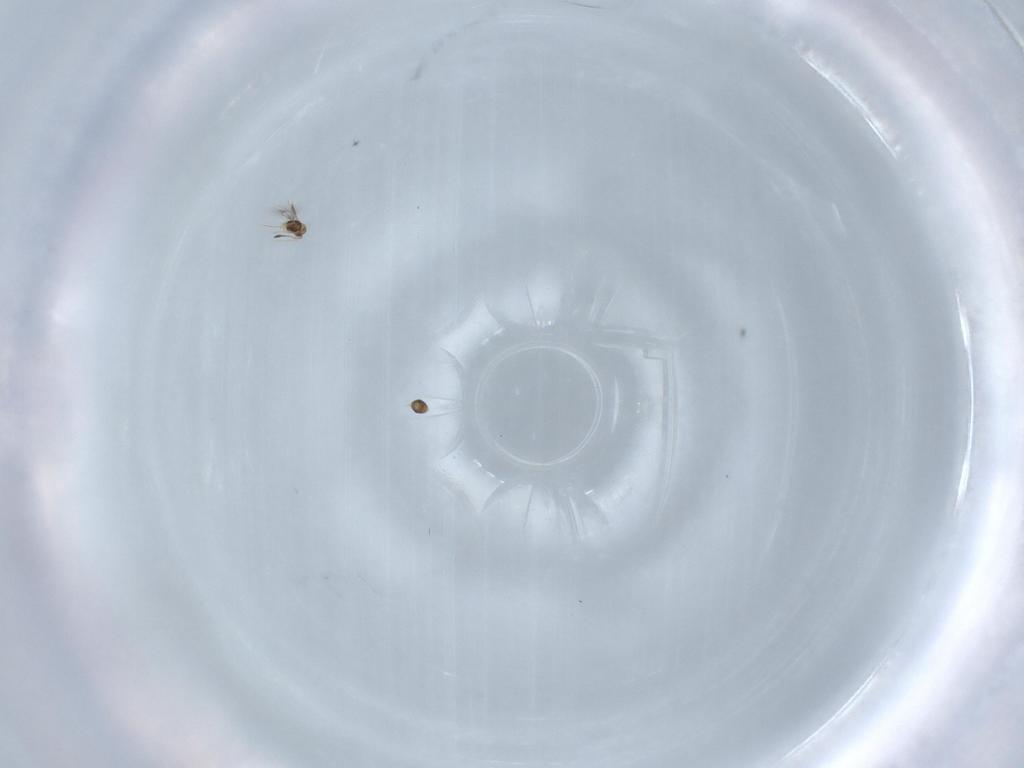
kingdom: Animalia
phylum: Arthropoda
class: Insecta
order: Hymenoptera
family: Mymarommatidae
